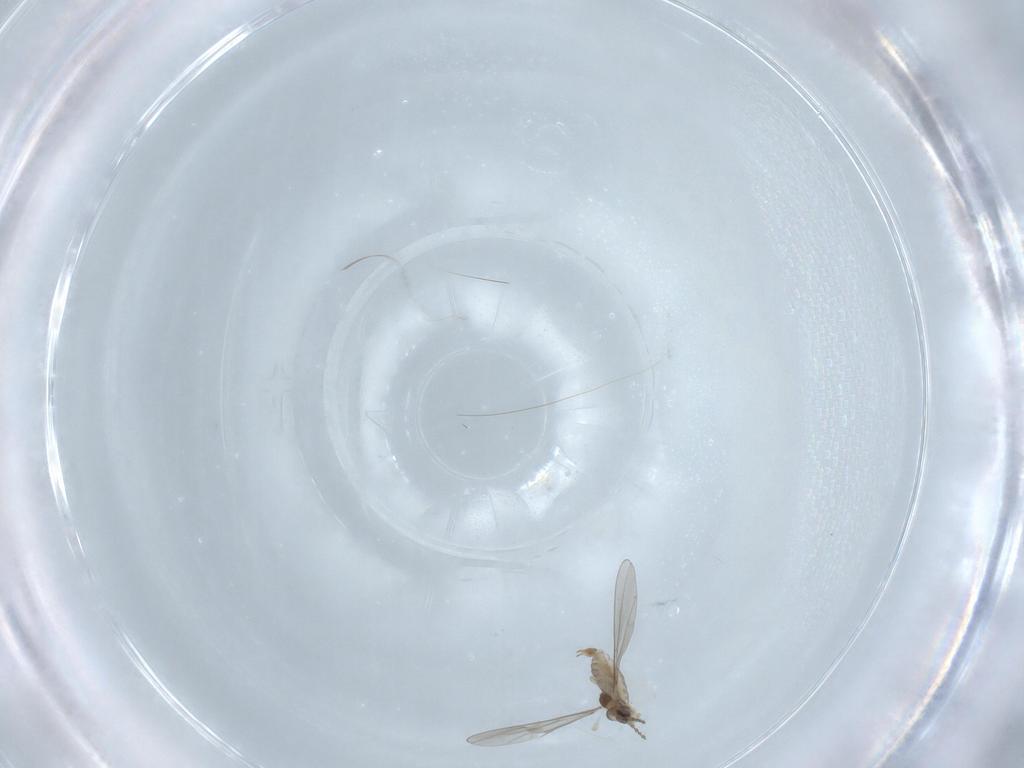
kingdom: Animalia
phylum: Arthropoda
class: Insecta
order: Diptera
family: Chironomidae
